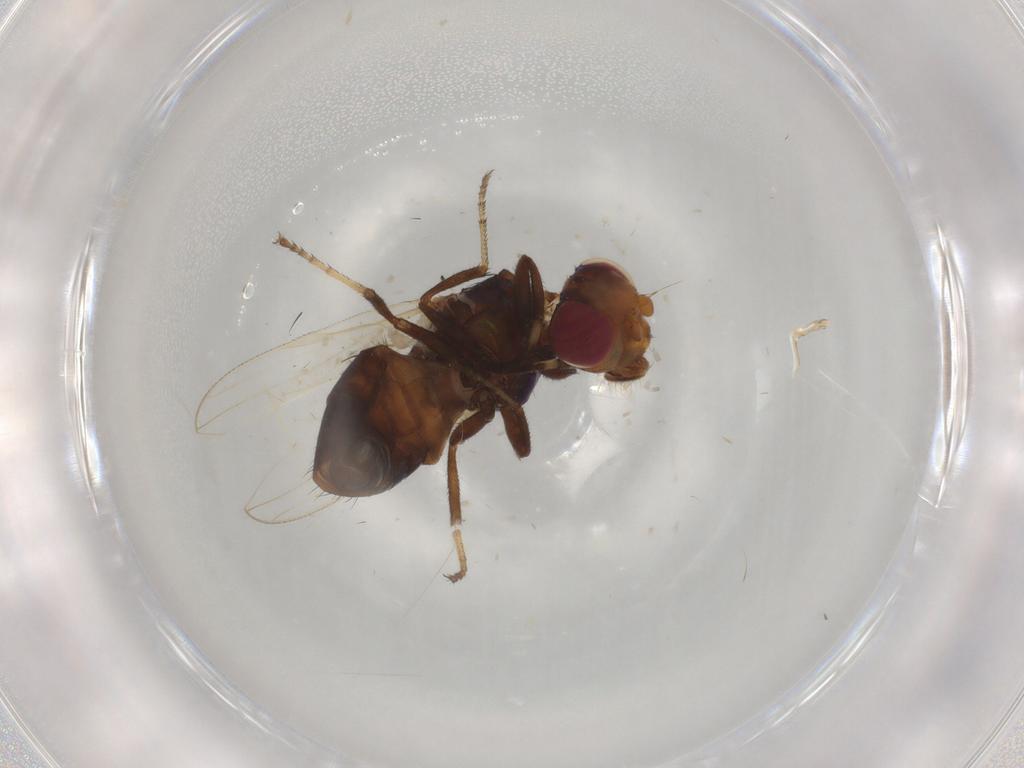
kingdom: Animalia
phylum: Arthropoda
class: Insecta
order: Diptera
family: Ulidiidae
